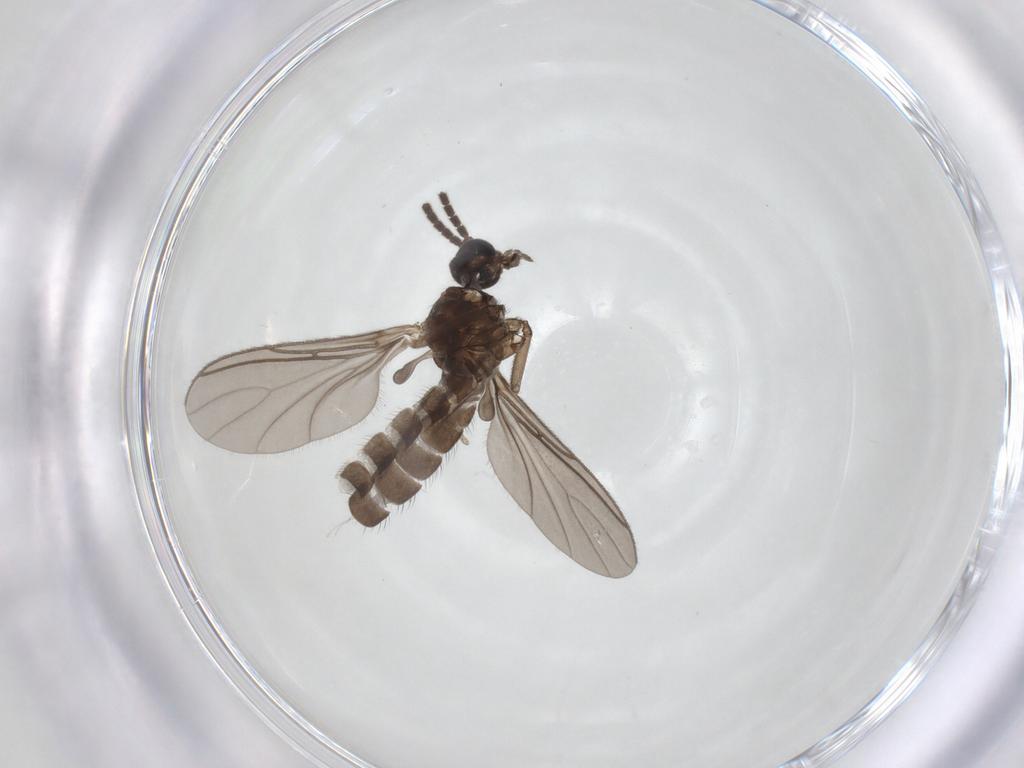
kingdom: Animalia
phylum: Arthropoda
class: Insecta
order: Diptera
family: Sciaridae
